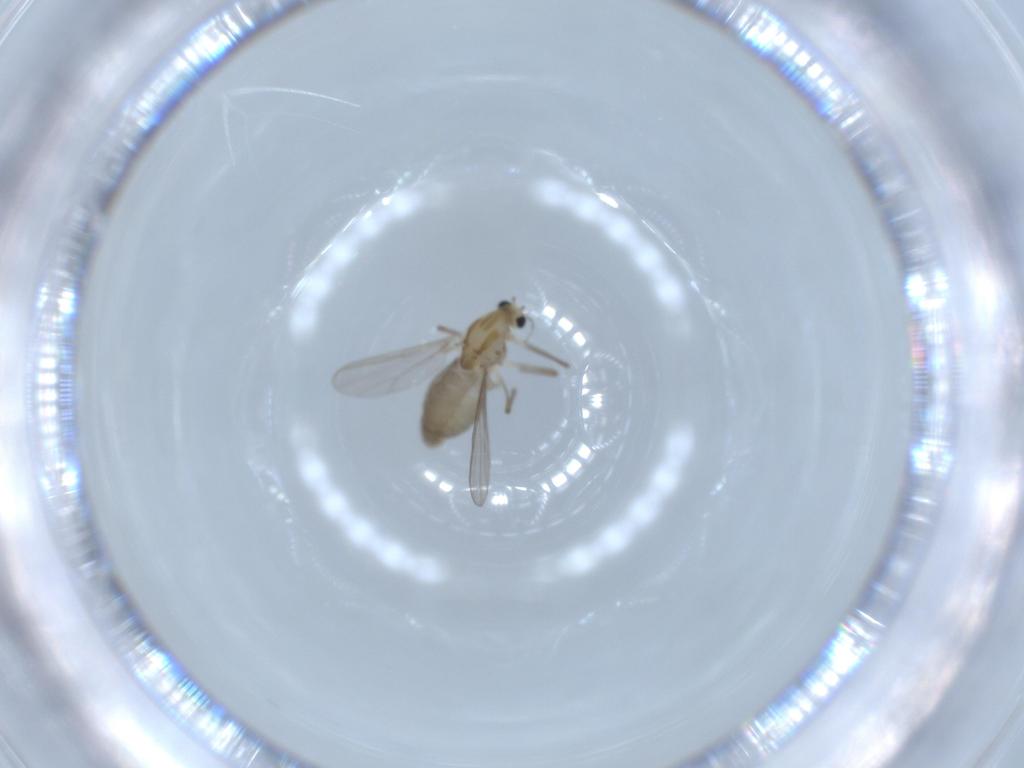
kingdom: Animalia
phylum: Arthropoda
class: Insecta
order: Diptera
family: Chironomidae
